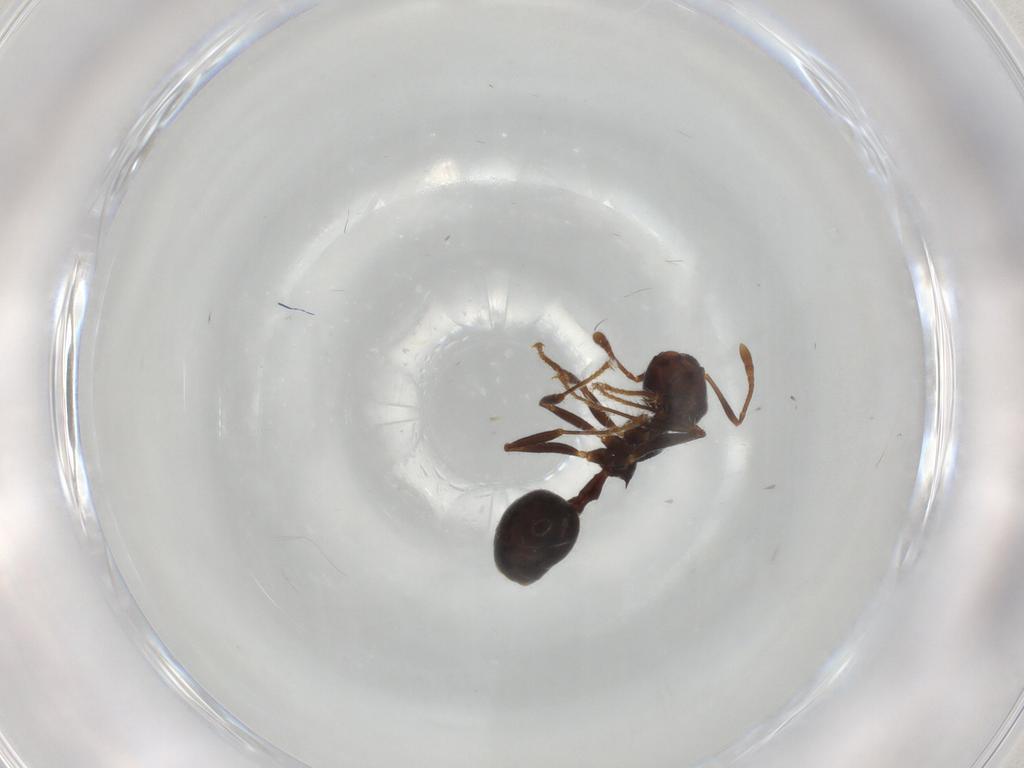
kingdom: Animalia
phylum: Arthropoda
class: Insecta
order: Hymenoptera
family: Formicidae
